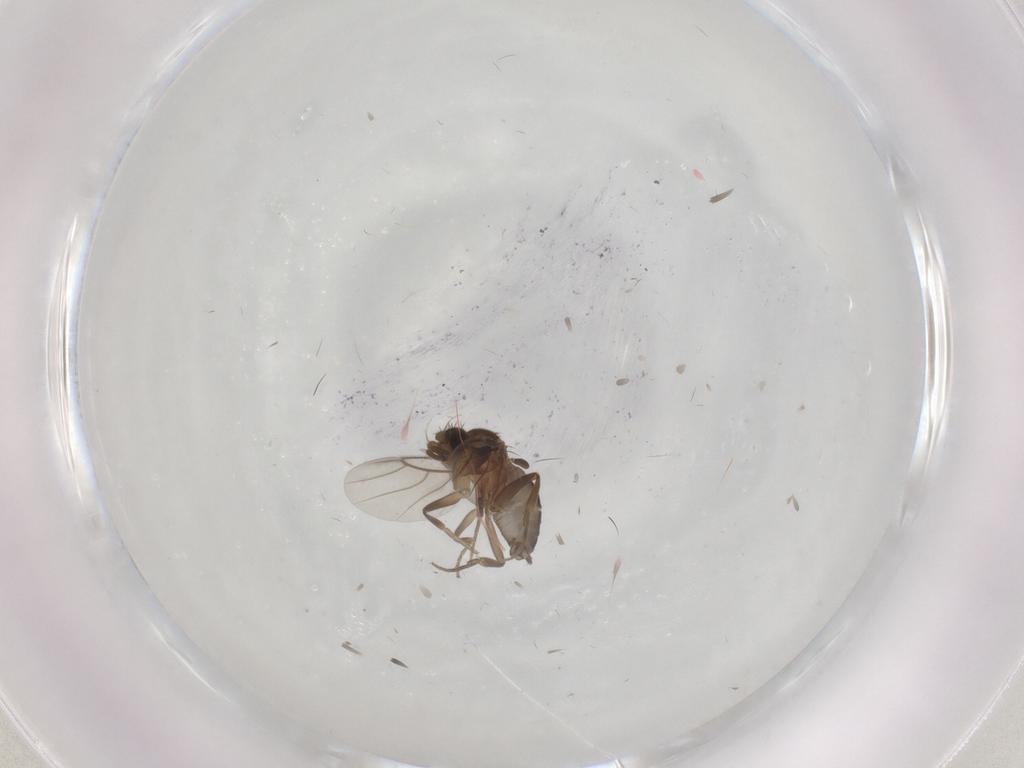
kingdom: Animalia
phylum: Arthropoda
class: Insecta
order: Diptera
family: Phoridae
